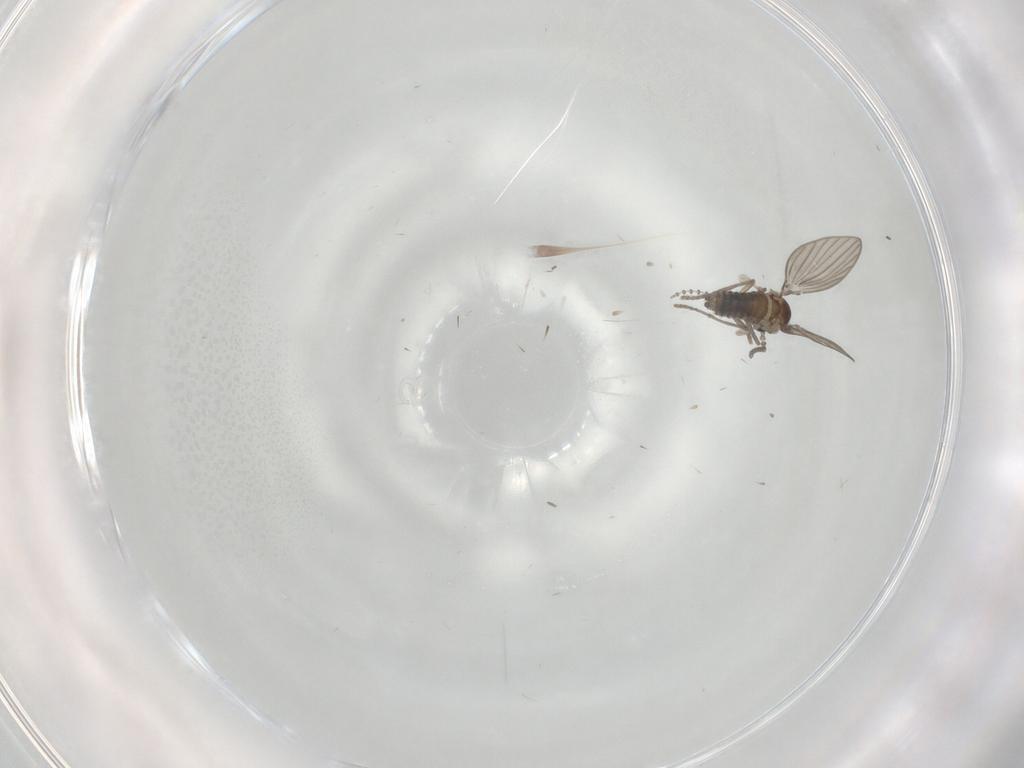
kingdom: Animalia
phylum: Arthropoda
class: Insecta
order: Diptera
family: Psychodidae
